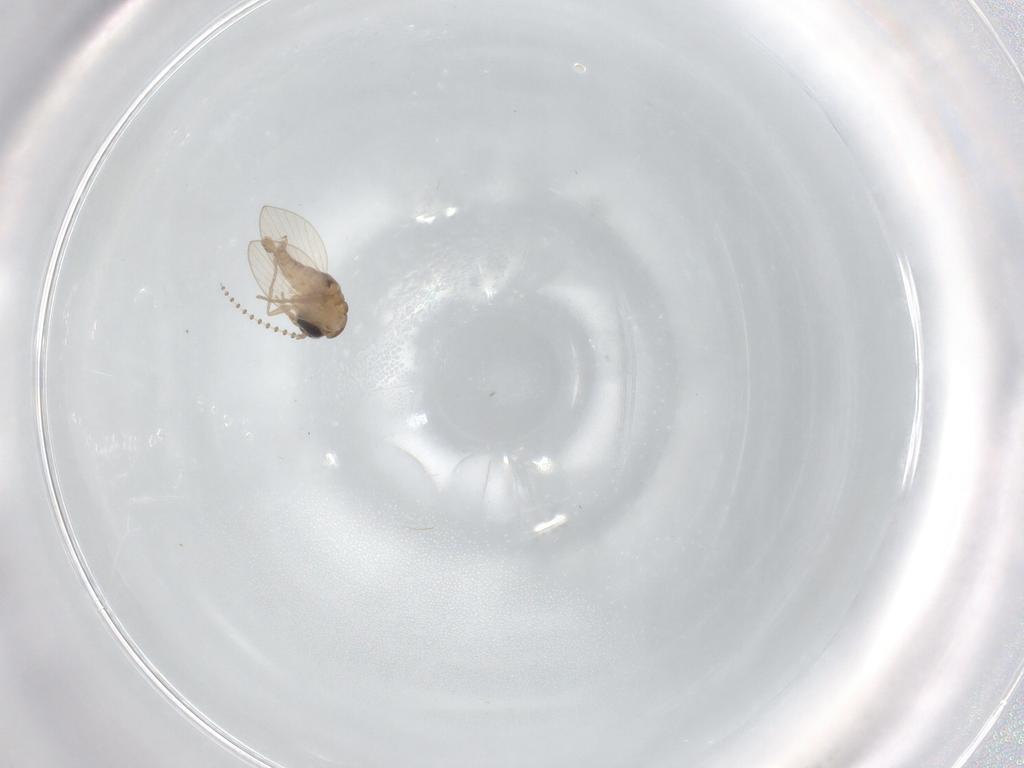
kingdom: Animalia
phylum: Arthropoda
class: Insecta
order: Diptera
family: Psychodidae
